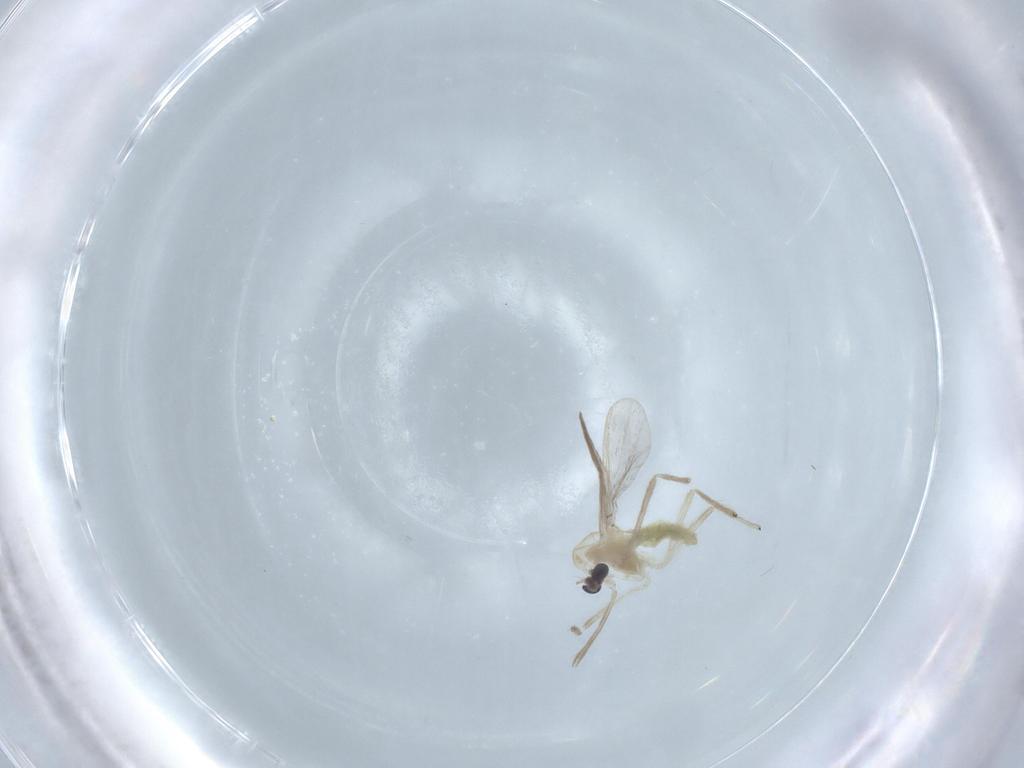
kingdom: Animalia
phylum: Arthropoda
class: Insecta
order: Diptera
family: Chironomidae
